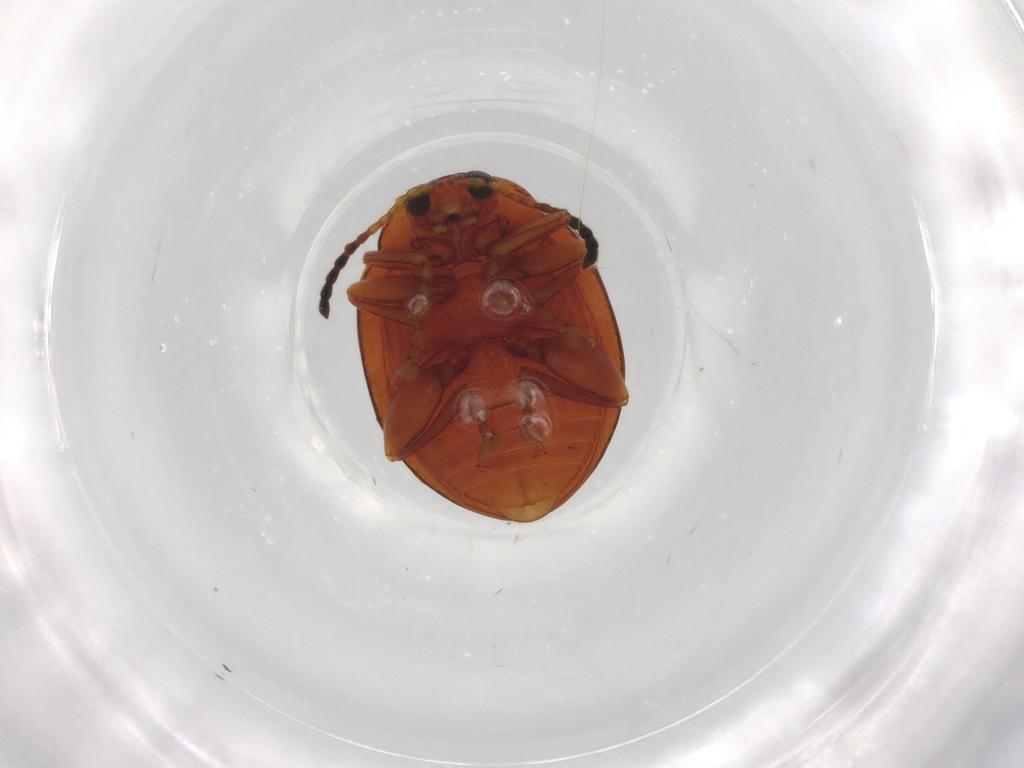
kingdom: Animalia
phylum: Arthropoda
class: Insecta
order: Coleoptera
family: Chrysomelidae
